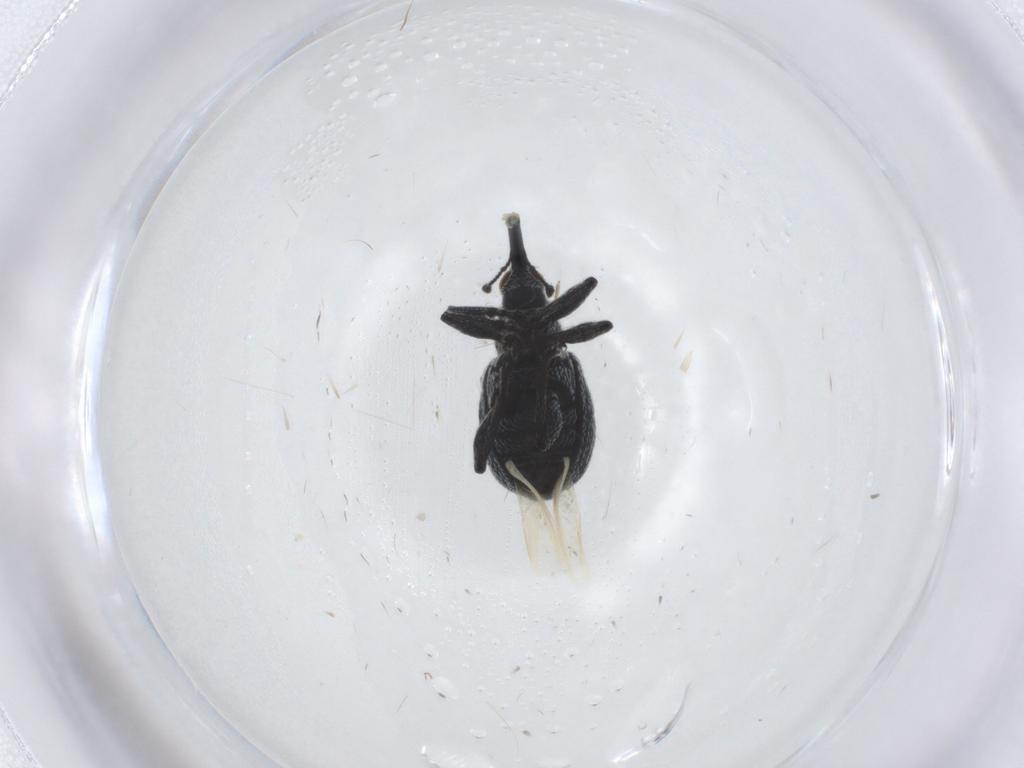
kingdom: Animalia
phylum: Arthropoda
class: Insecta
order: Coleoptera
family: Brentidae
